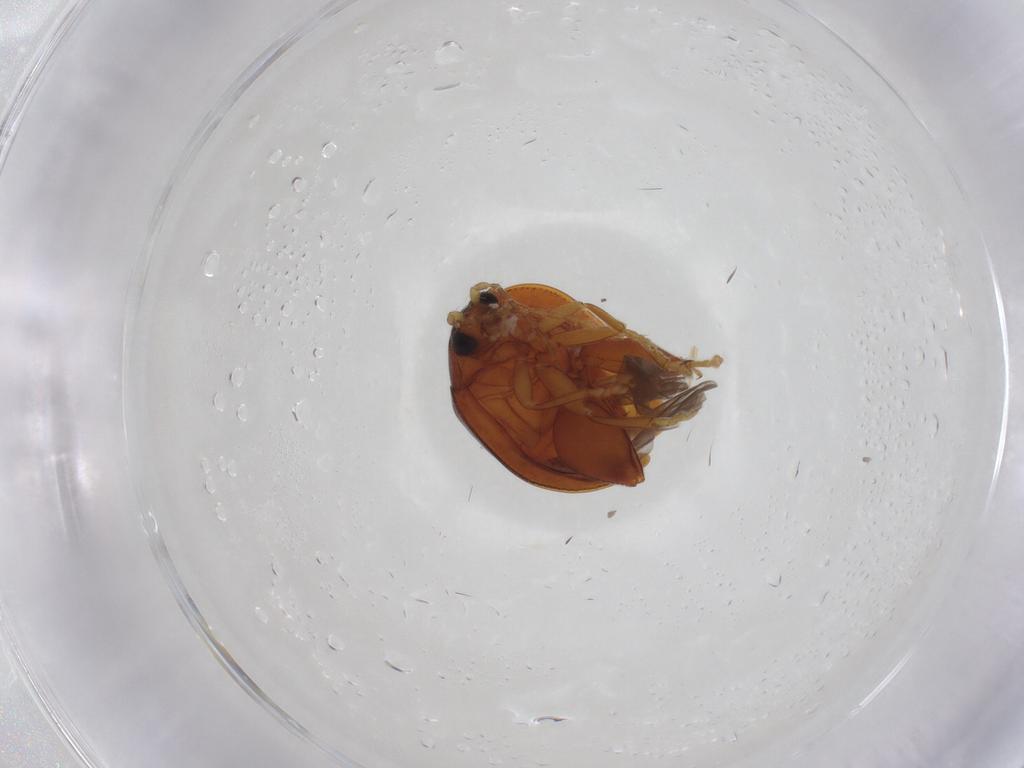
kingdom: Animalia
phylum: Arthropoda
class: Insecta
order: Coleoptera
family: Chrysomelidae
